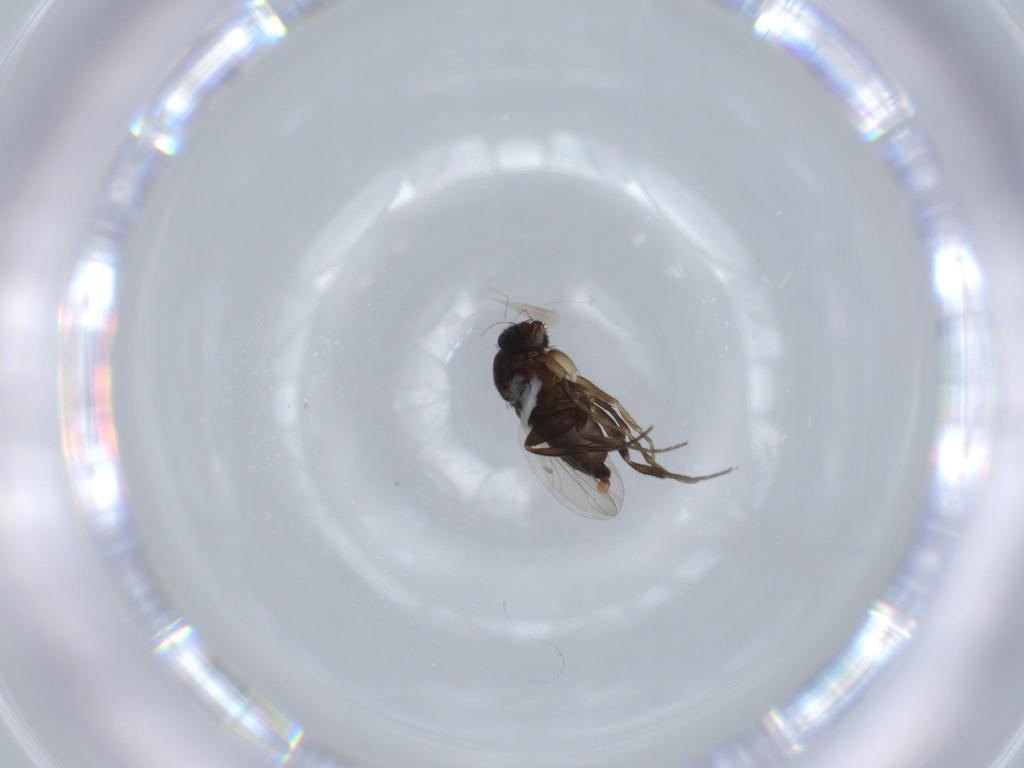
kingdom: Animalia
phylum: Arthropoda
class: Insecta
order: Diptera
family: Phoridae
